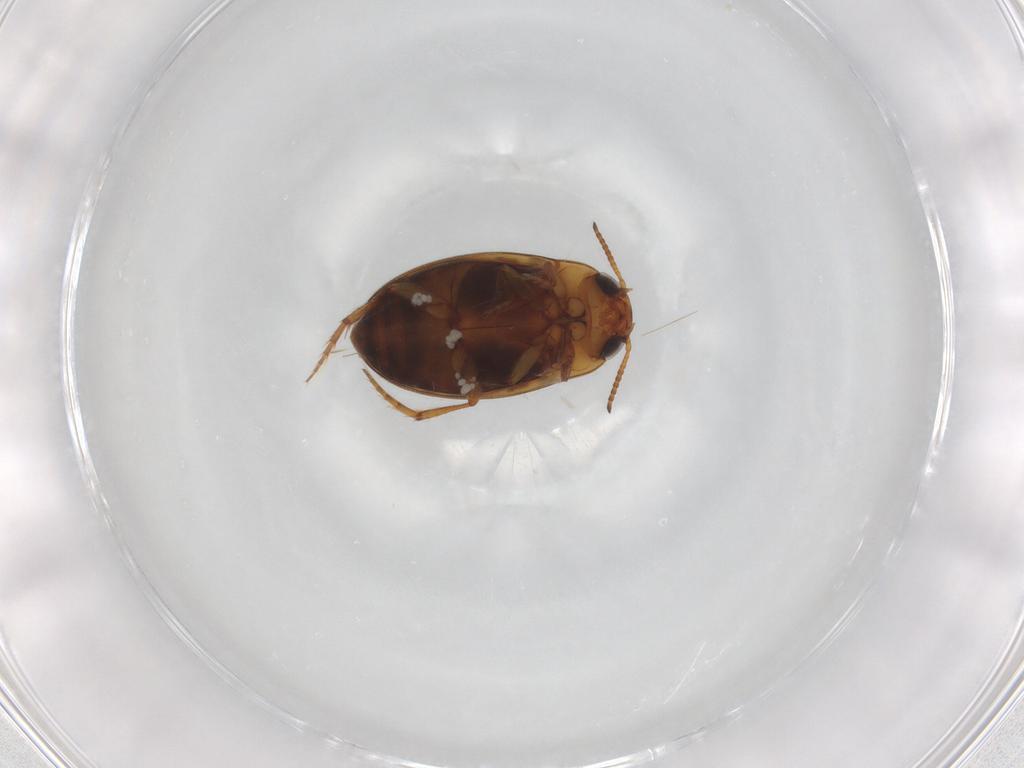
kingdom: Animalia
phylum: Arthropoda
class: Insecta
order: Coleoptera
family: Dytiscidae
